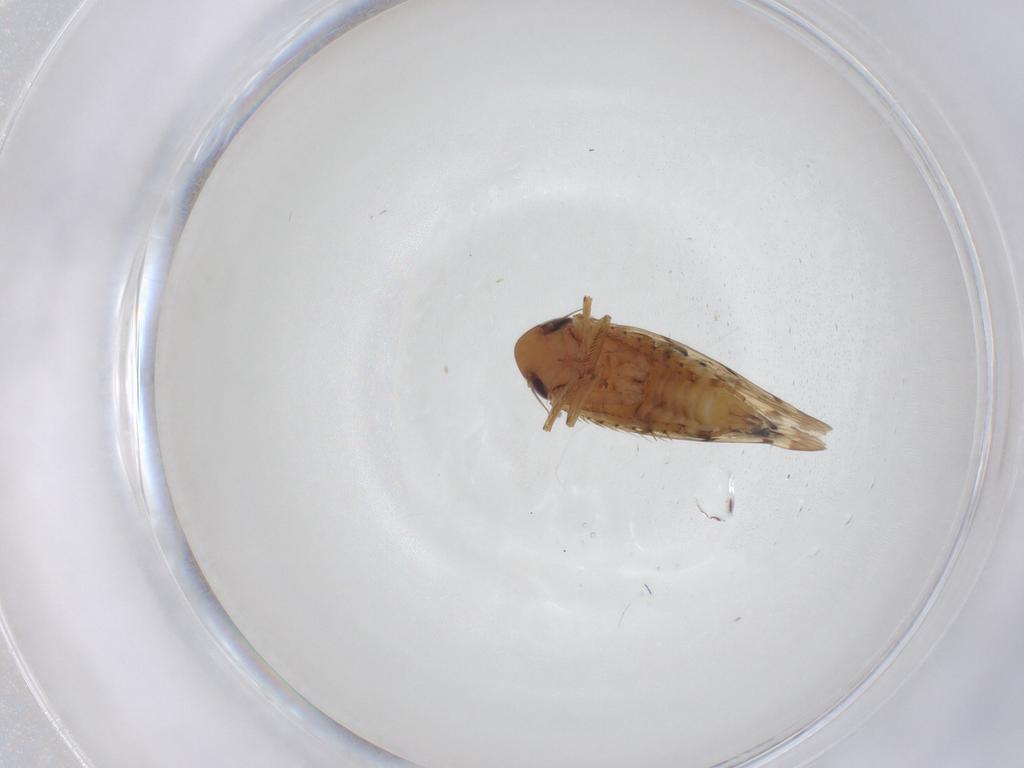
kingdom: Animalia
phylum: Arthropoda
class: Insecta
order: Hemiptera
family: Cicadellidae
